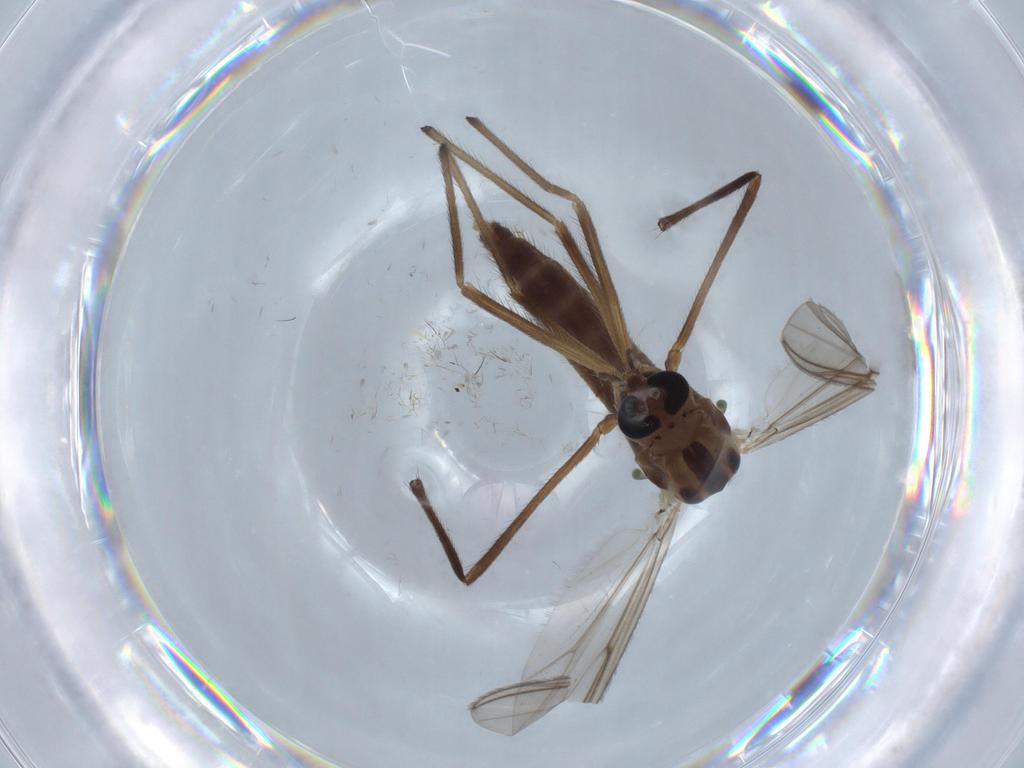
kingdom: Animalia
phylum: Arthropoda
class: Insecta
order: Diptera
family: Chironomidae
